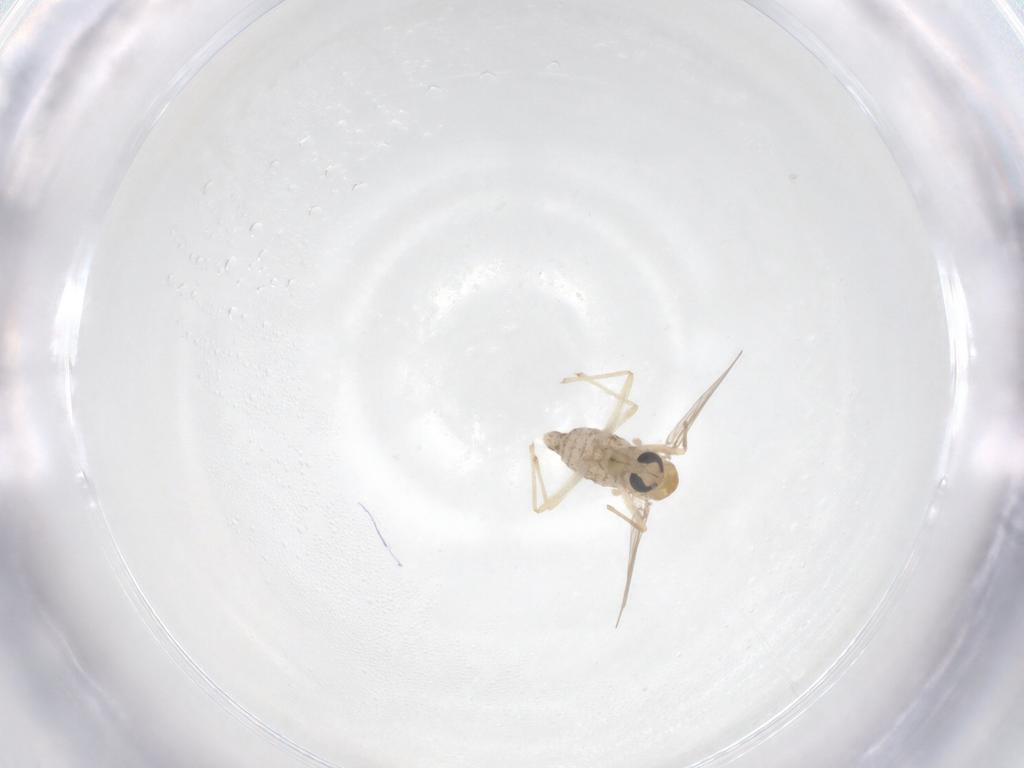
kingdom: Animalia
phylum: Arthropoda
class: Insecta
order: Diptera
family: Chironomidae
